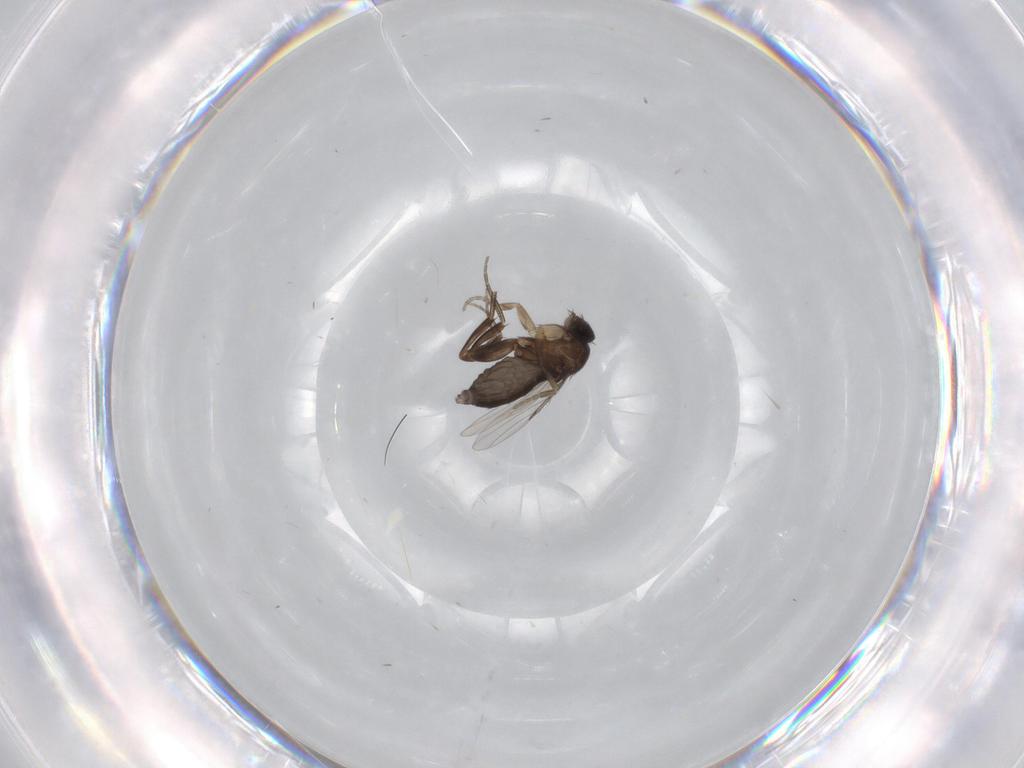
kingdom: Animalia
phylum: Arthropoda
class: Insecta
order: Diptera
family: Phoridae
